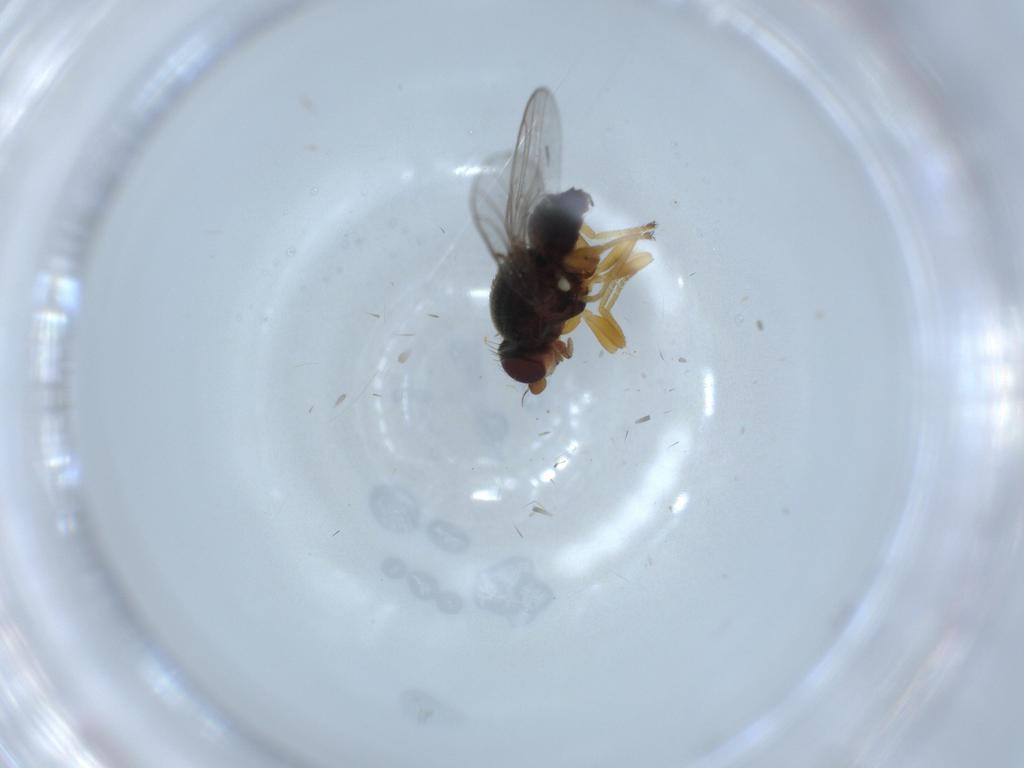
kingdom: Animalia
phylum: Arthropoda
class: Insecta
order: Diptera
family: Chloropidae
